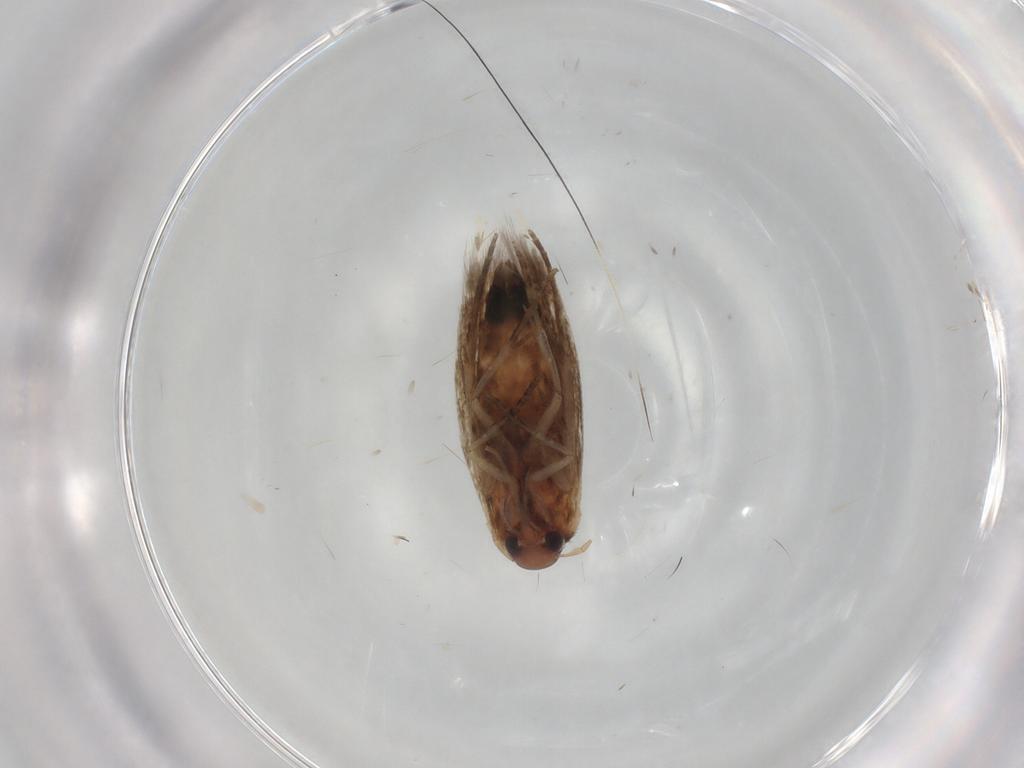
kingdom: Animalia
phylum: Arthropoda
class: Insecta
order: Lepidoptera
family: Cosmopterigidae
